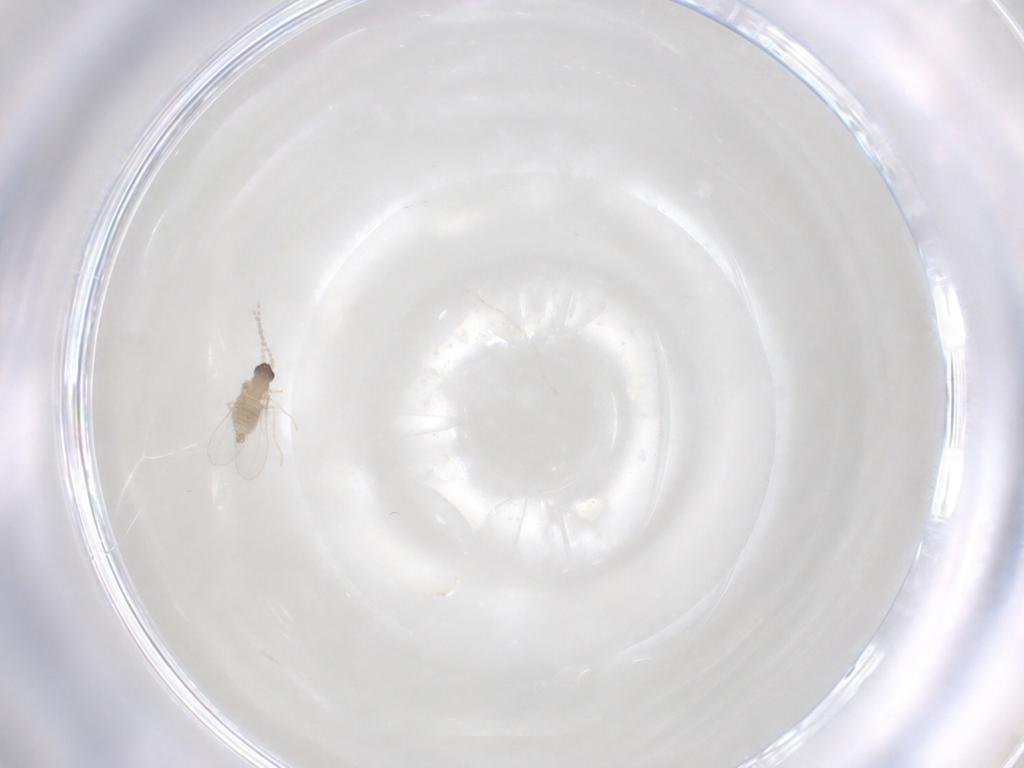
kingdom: Animalia
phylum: Arthropoda
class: Insecta
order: Diptera
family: Cecidomyiidae
